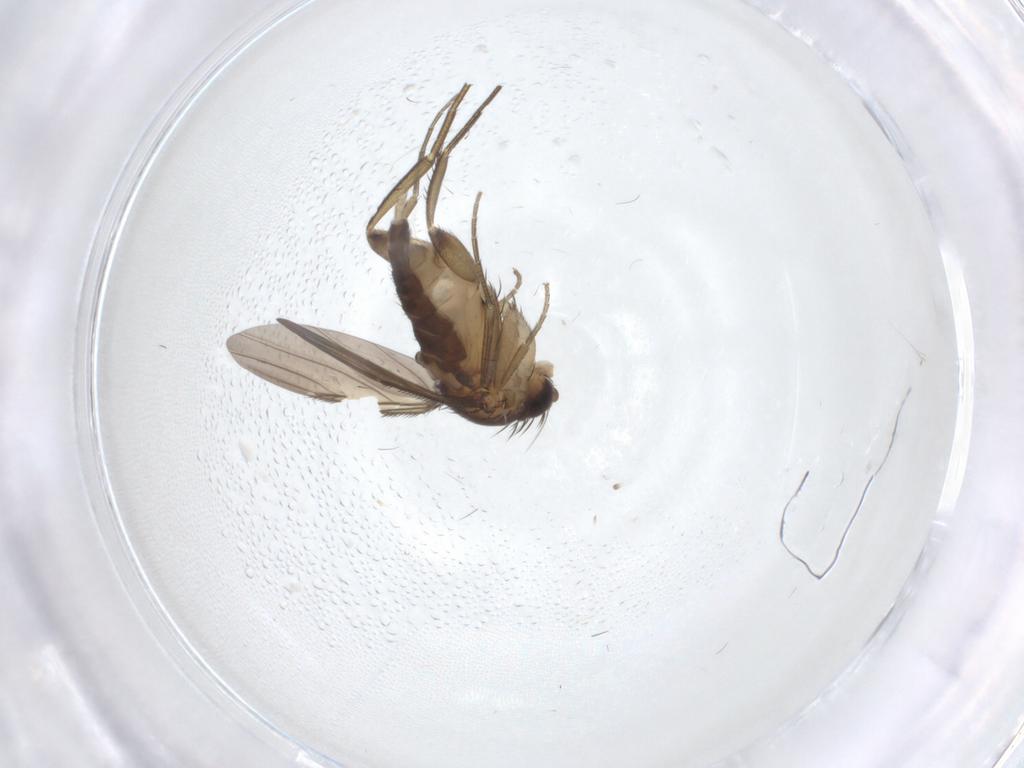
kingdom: Animalia
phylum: Arthropoda
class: Insecta
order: Diptera
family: Phoridae
